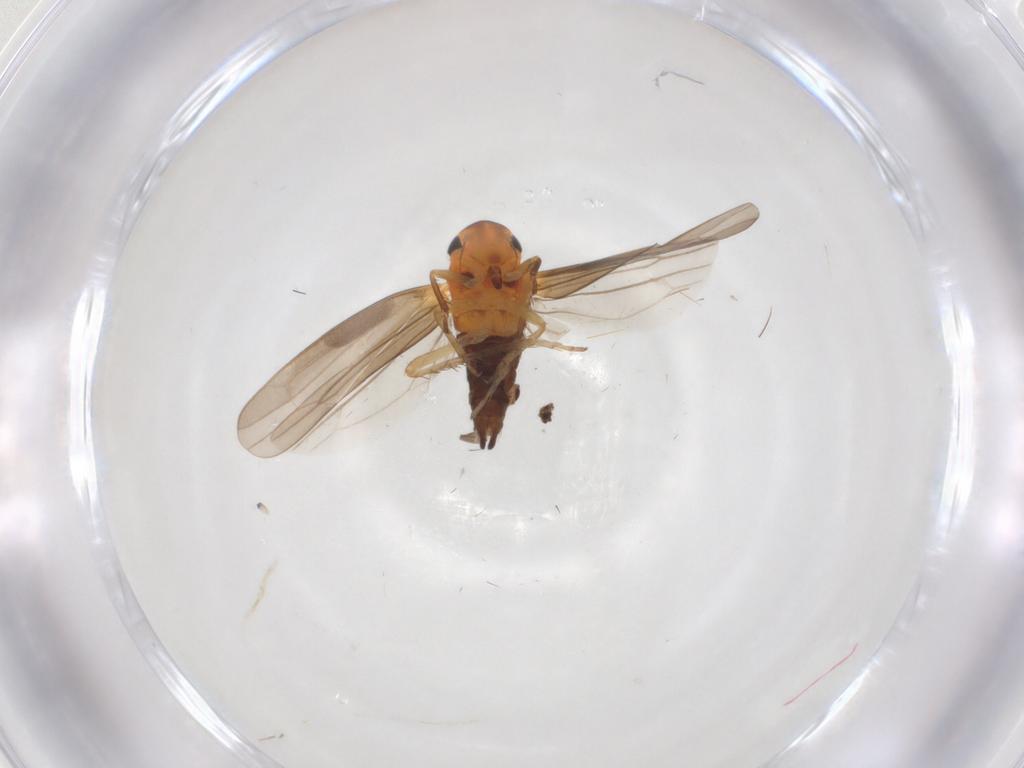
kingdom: Animalia
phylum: Arthropoda
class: Insecta
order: Hemiptera
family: Cicadellidae
